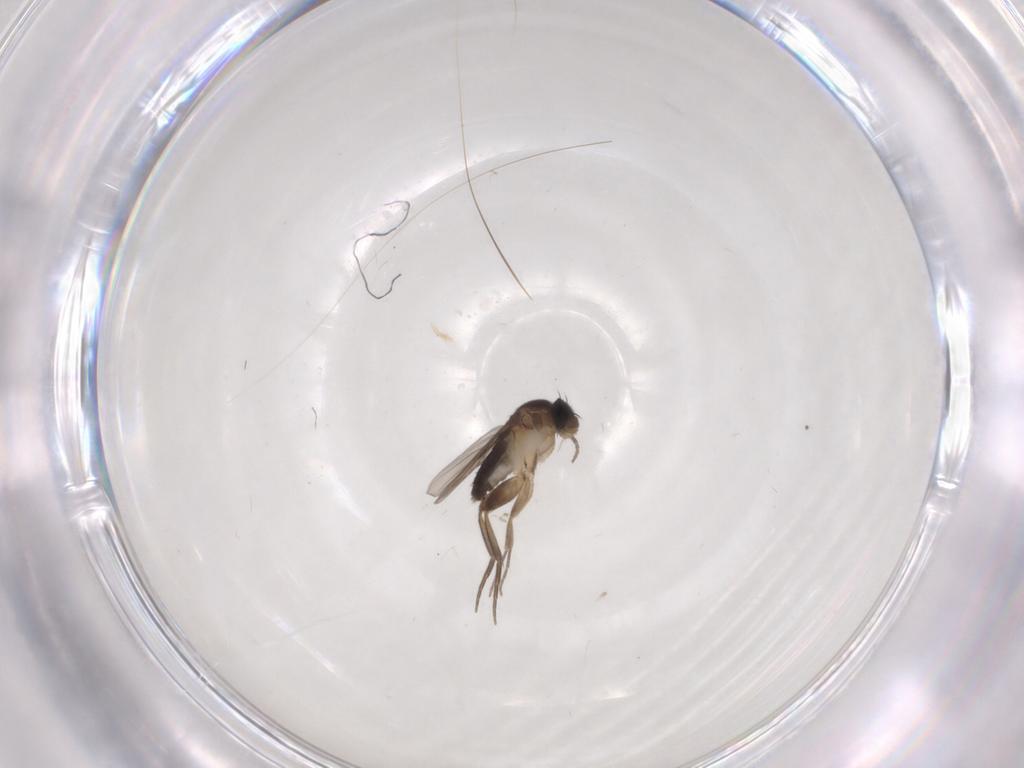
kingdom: Animalia
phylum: Arthropoda
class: Insecta
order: Diptera
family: Phoridae
